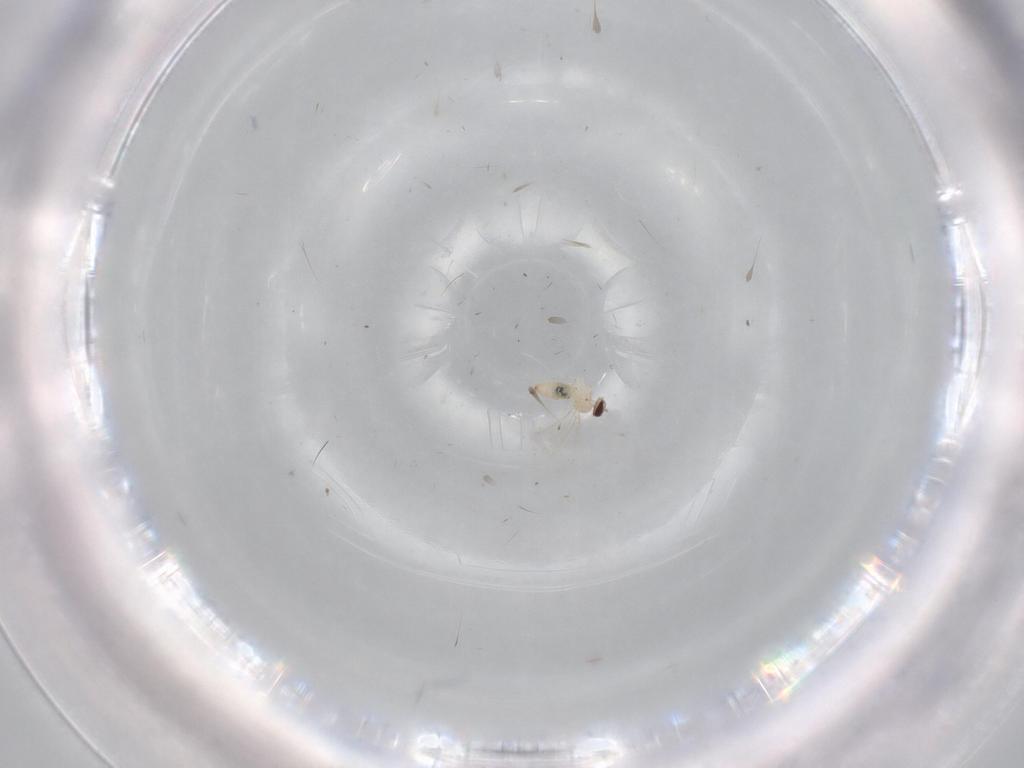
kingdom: Animalia
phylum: Arthropoda
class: Insecta
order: Diptera
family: Cecidomyiidae
